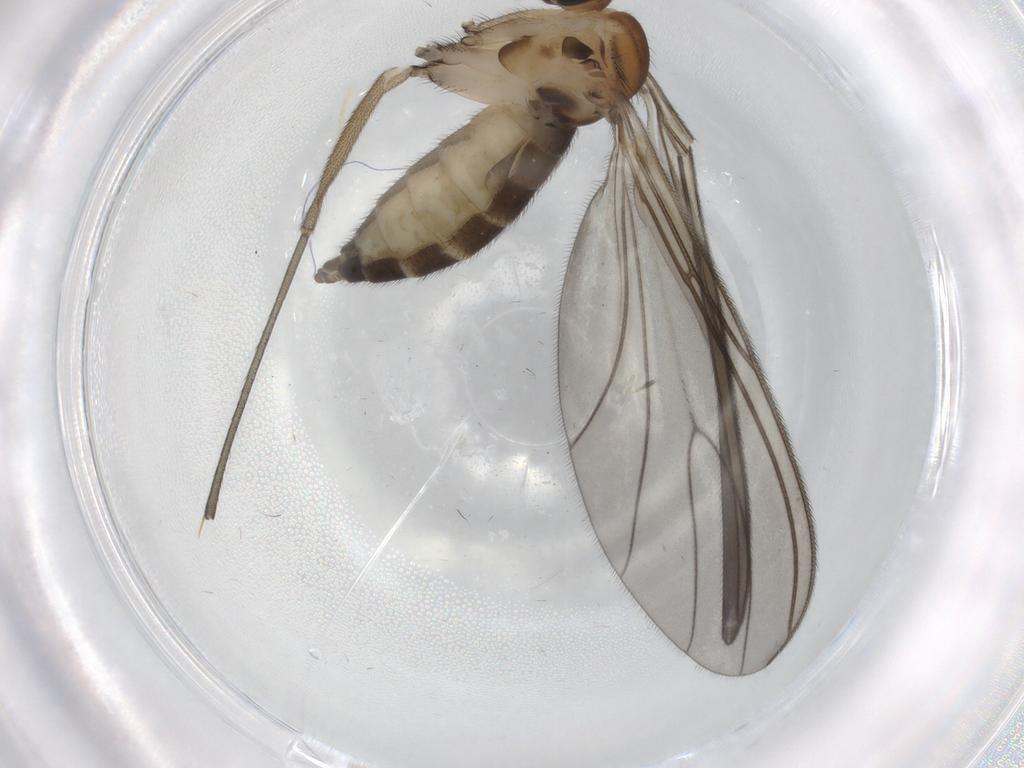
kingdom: Animalia
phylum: Arthropoda
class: Insecta
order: Diptera
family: Sciaridae
